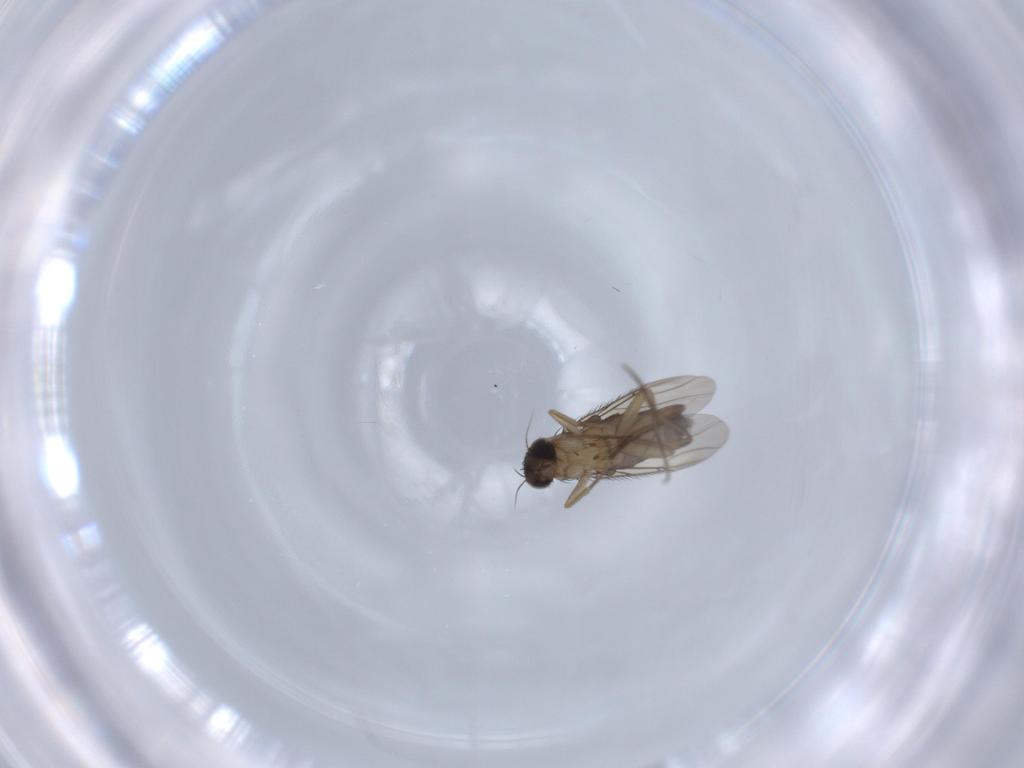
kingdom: Animalia
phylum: Arthropoda
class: Insecta
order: Diptera
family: Phoridae
